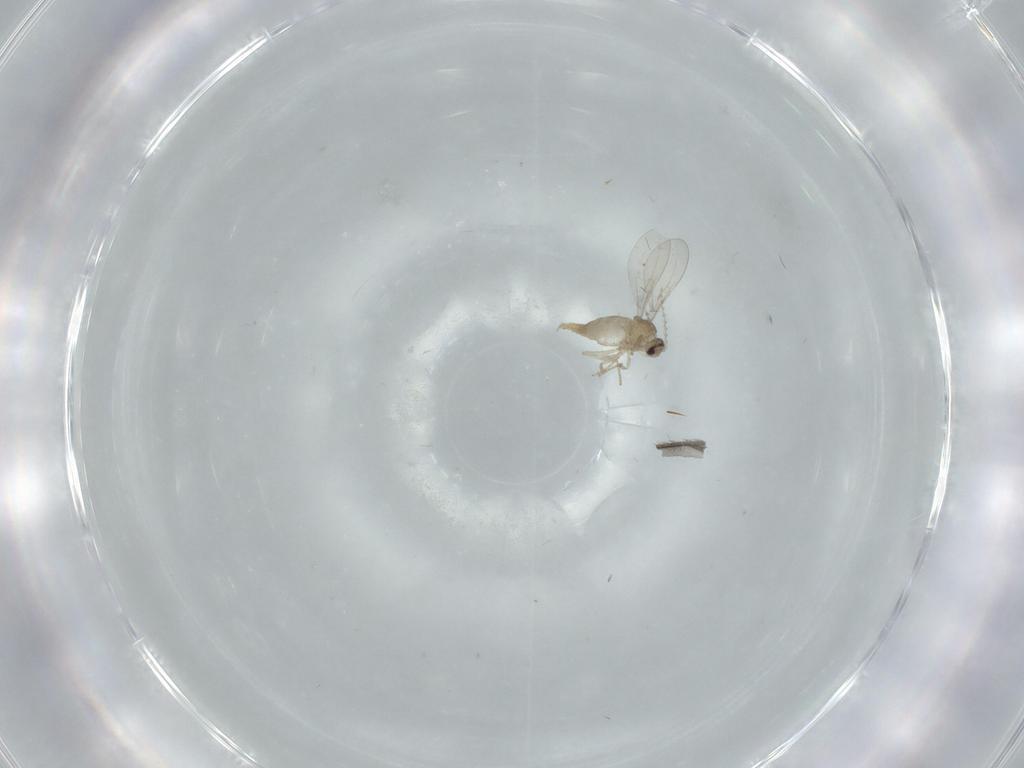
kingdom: Animalia
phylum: Arthropoda
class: Insecta
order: Diptera
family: Cecidomyiidae
